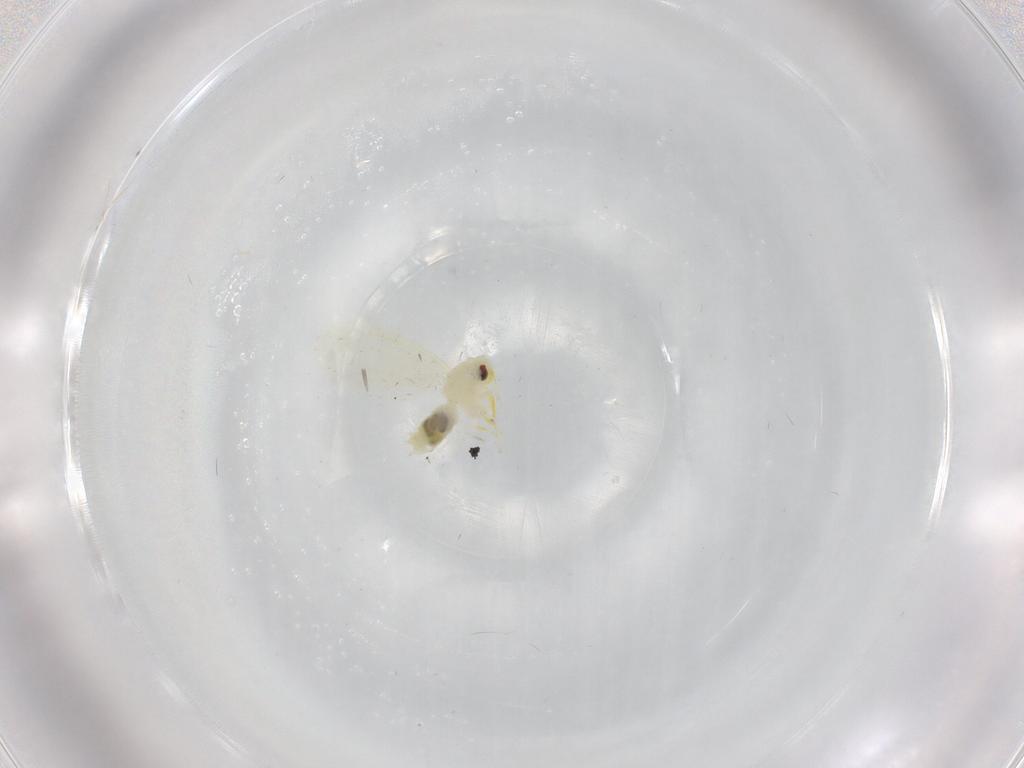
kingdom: Animalia
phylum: Arthropoda
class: Insecta
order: Hemiptera
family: Aleyrodidae
